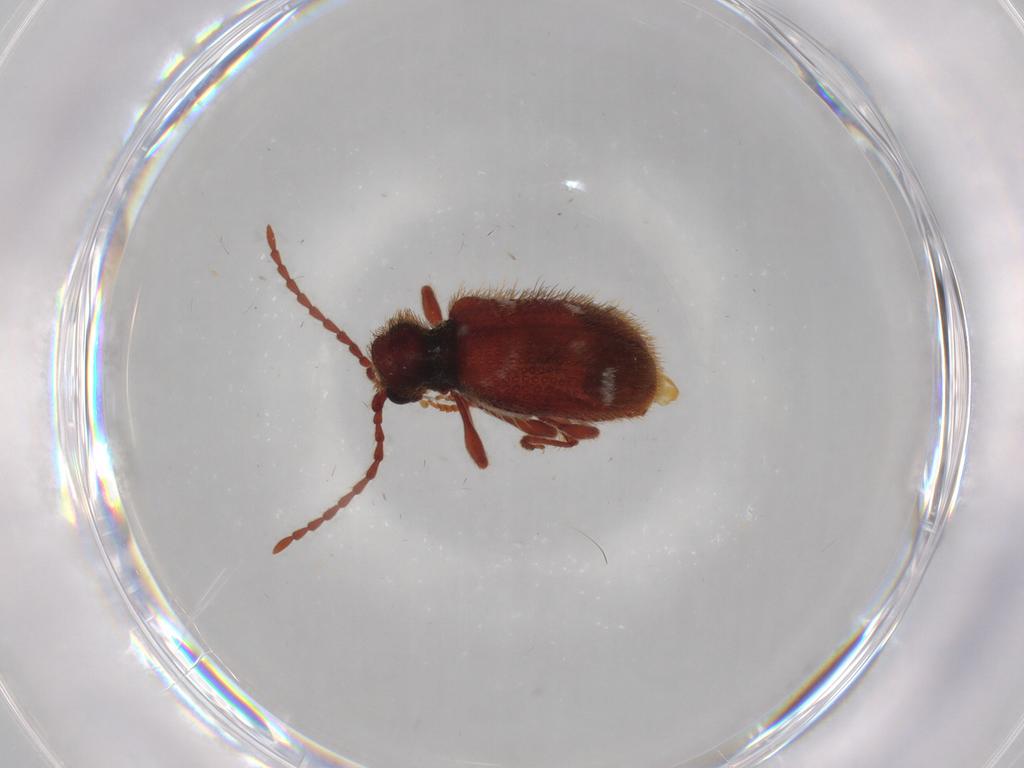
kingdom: Animalia
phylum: Arthropoda
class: Insecta
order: Coleoptera
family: Ptinidae
